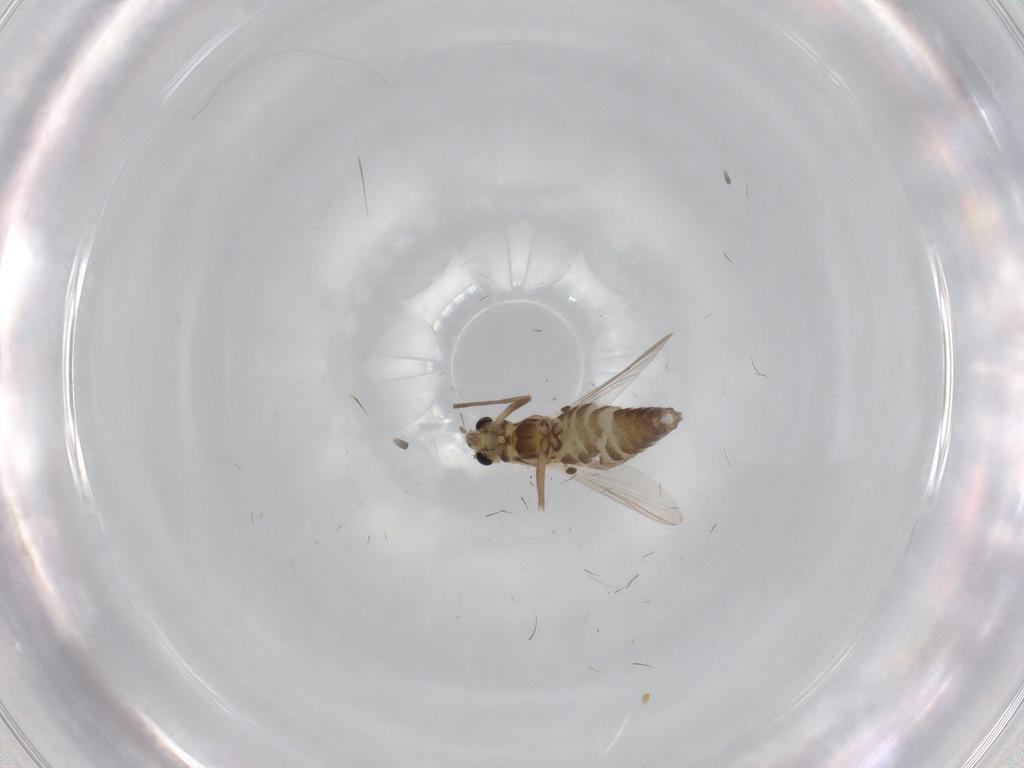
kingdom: Animalia
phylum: Arthropoda
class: Insecta
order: Diptera
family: Chironomidae
